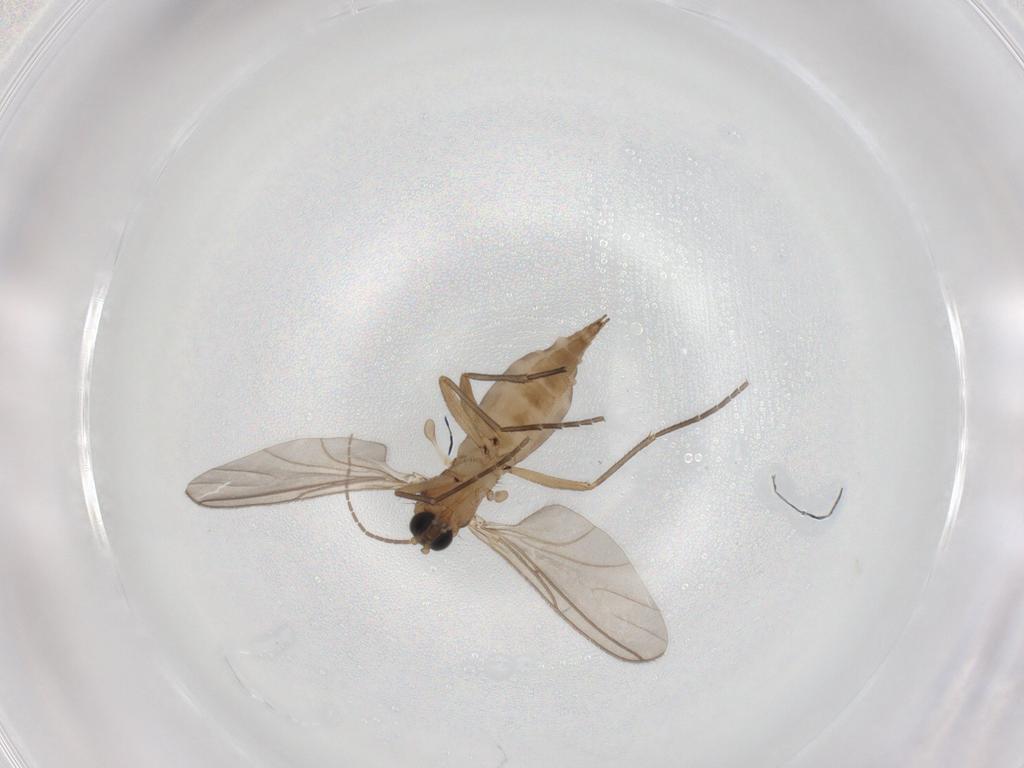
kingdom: Animalia
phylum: Arthropoda
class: Insecta
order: Diptera
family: Sciaridae
